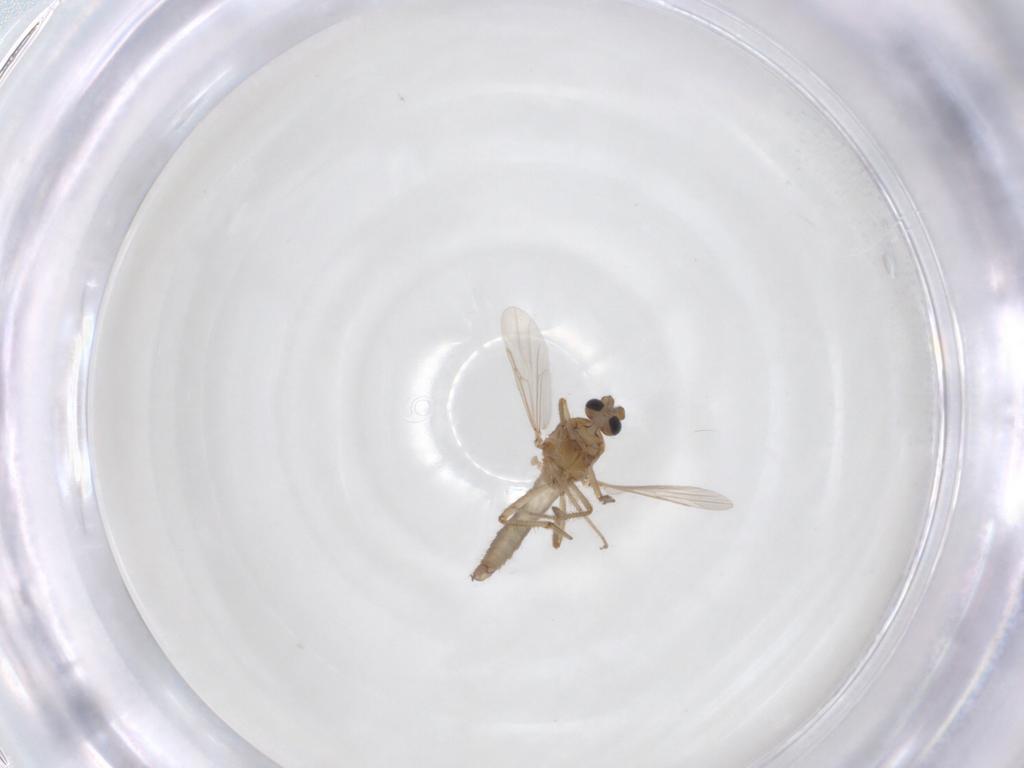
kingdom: Animalia
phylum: Arthropoda
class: Insecta
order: Diptera
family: Ceratopogonidae
